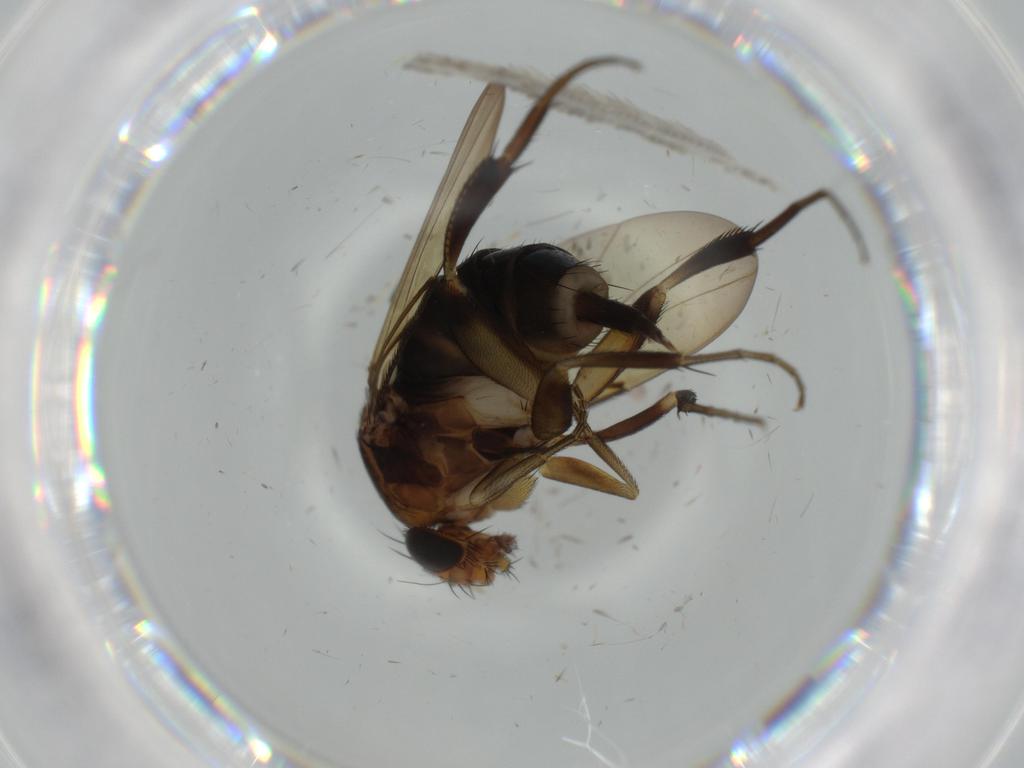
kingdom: Animalia
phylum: Arthropoda
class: Insecta
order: Diptera
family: Phoridae
